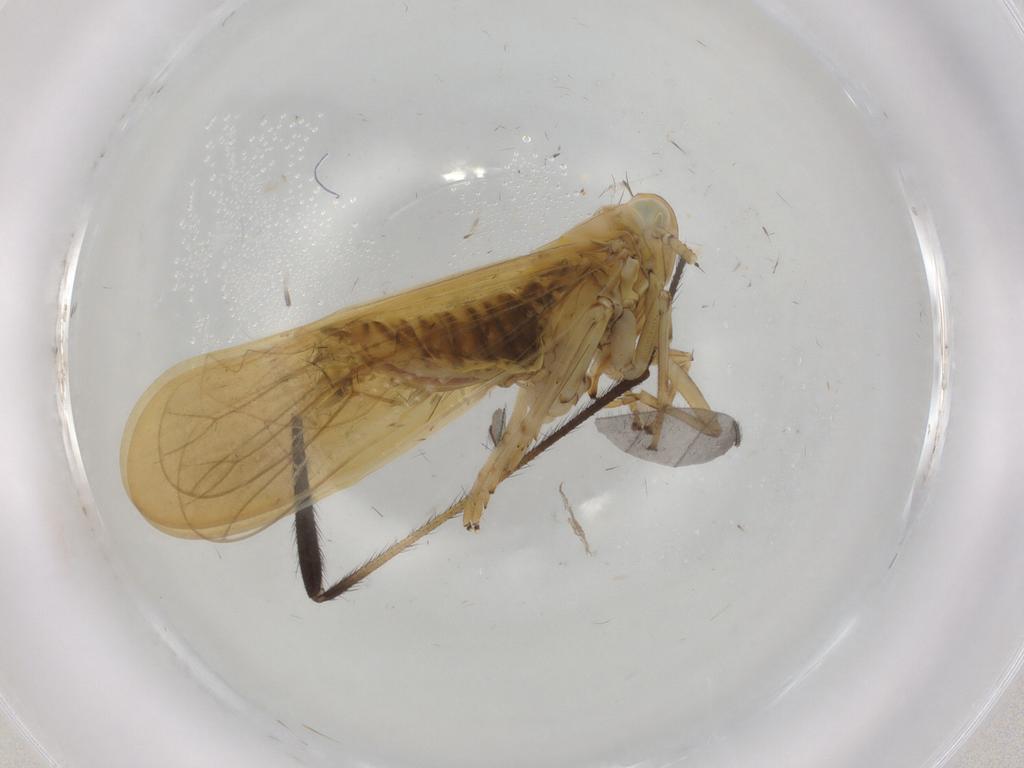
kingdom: Animalia
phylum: Arthropoda
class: Insecta
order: Hemiptera
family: Delphacidae
